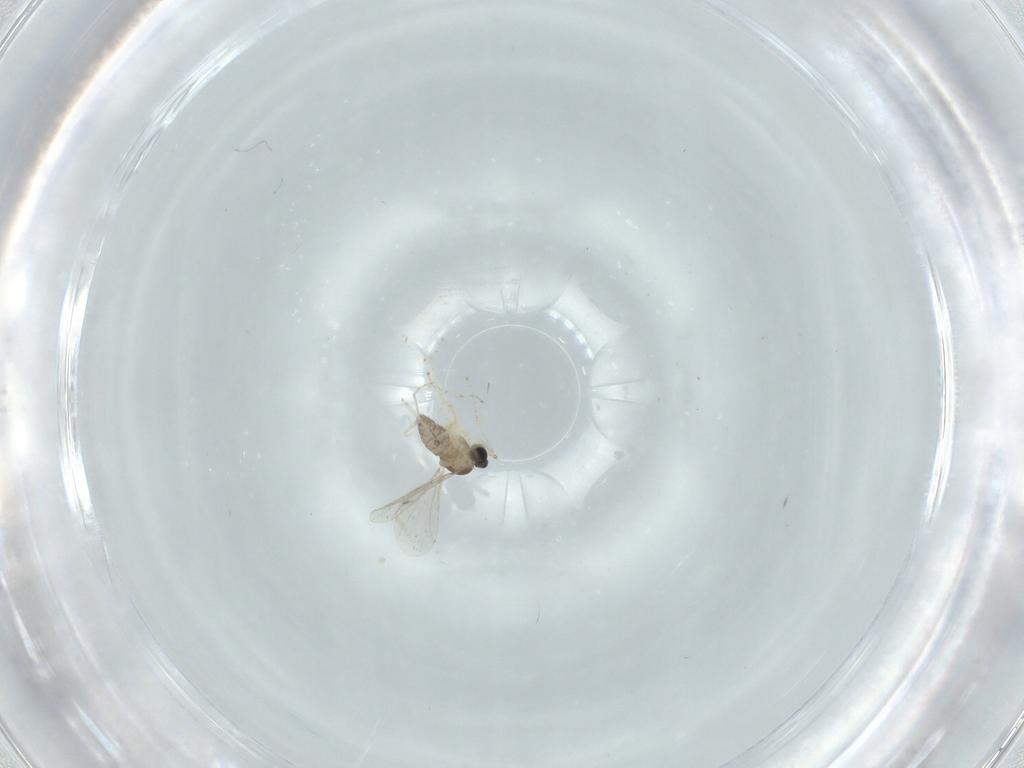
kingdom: Animalia
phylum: Arthropoda
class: Insecta
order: Diptera
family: Cecidomyiidae
